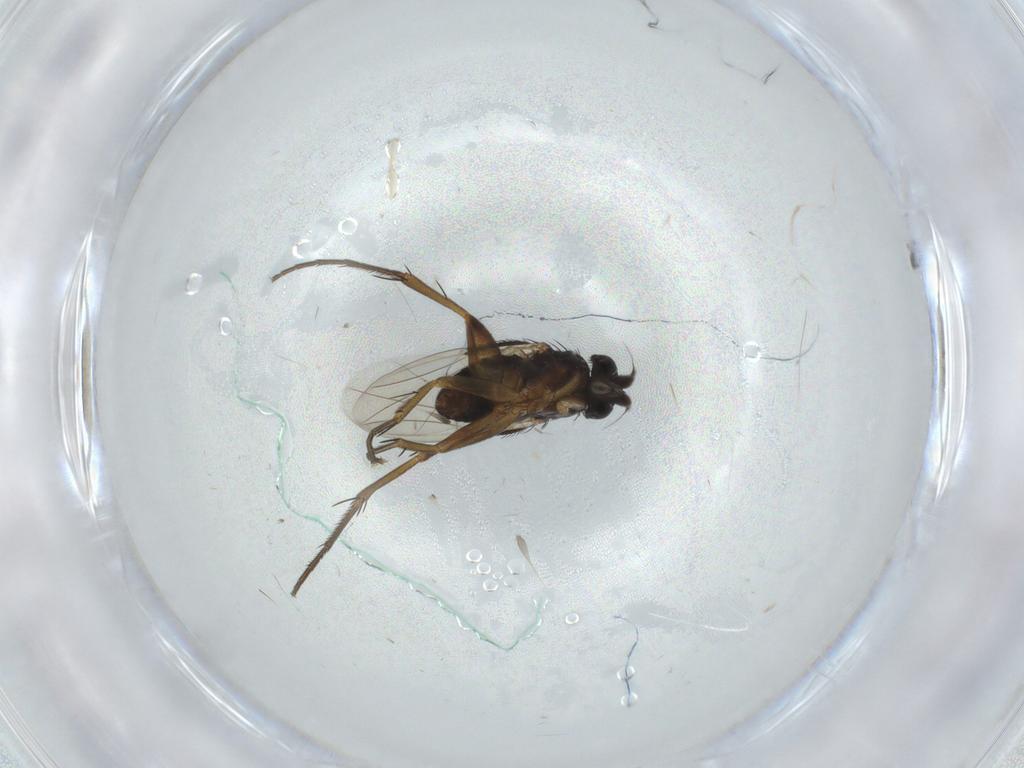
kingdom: Animalia
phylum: Arthropoda
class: Insecta
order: Diptera
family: Phoridae
